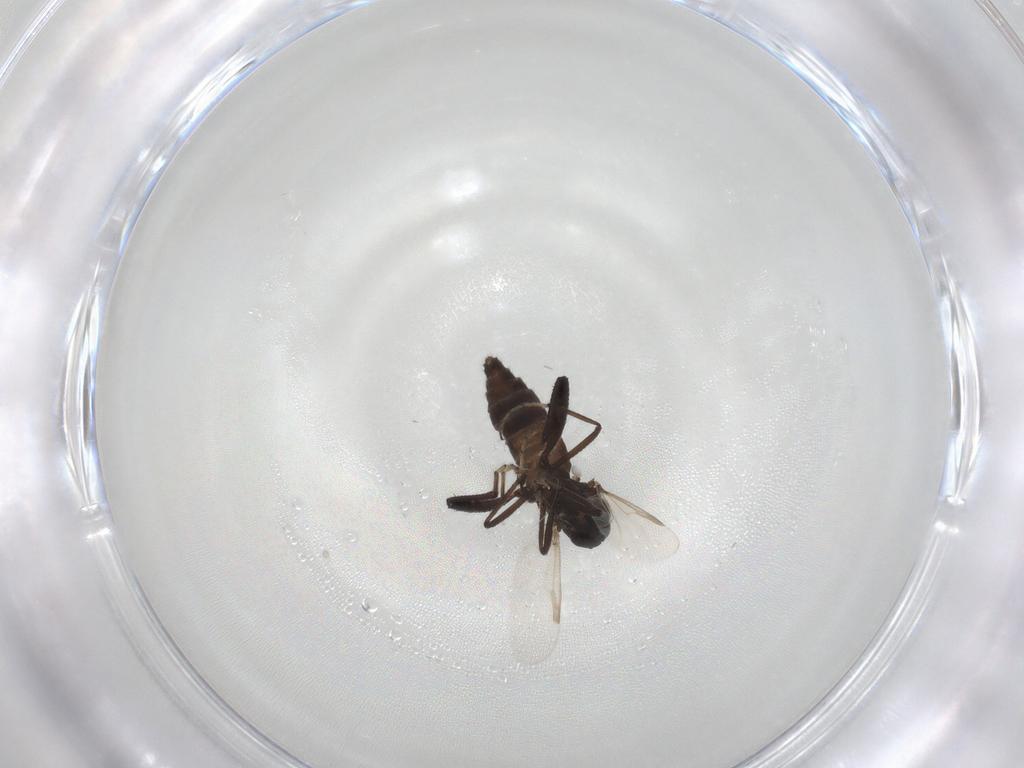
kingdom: Animalia
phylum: Arthropoda
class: Insecta
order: Diptera
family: Ceratopogonidae
